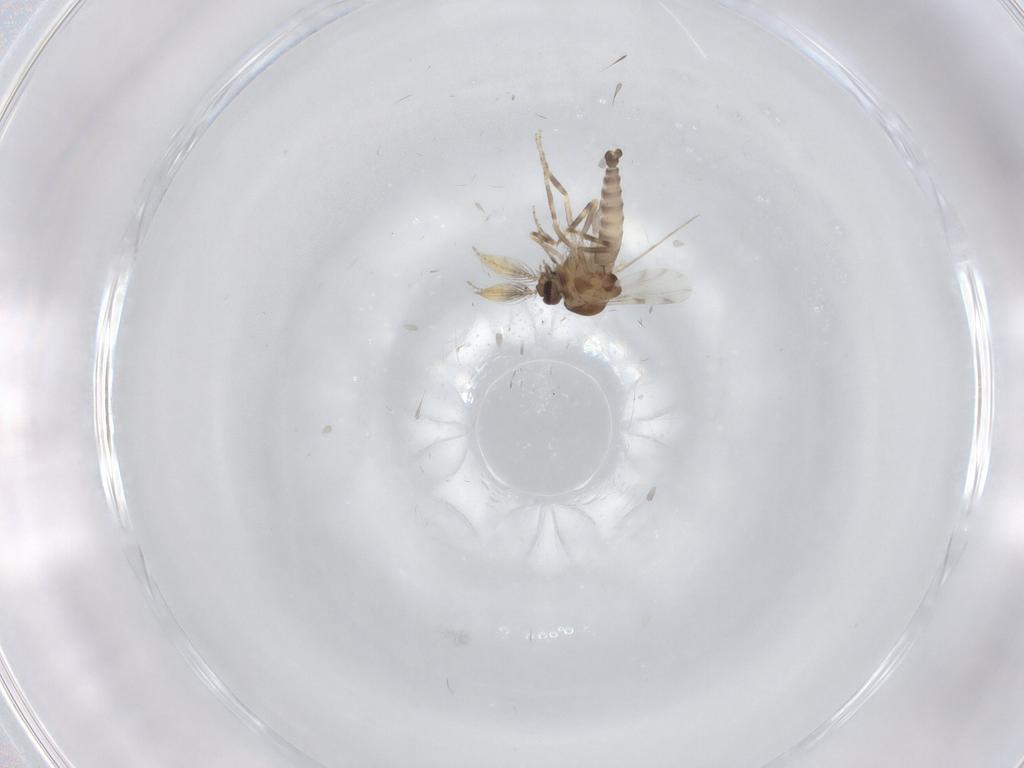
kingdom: Animalia
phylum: Arthropoda
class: Insecta
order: Diptera
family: Ceratopogonidae
